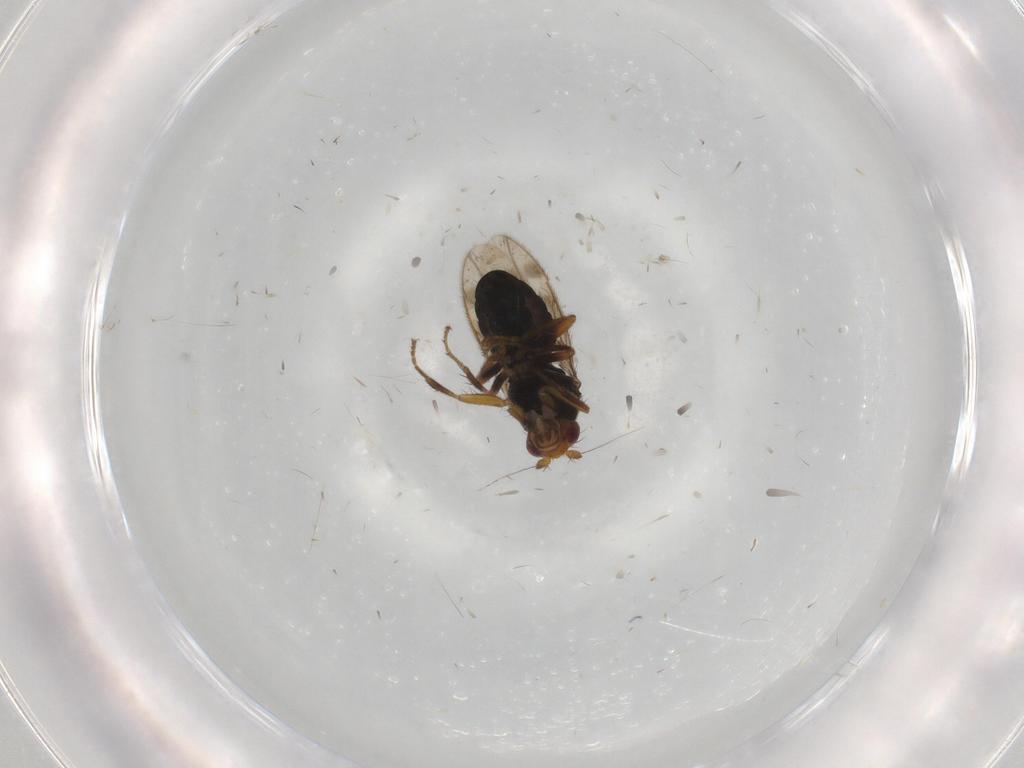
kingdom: Animalia
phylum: Arthropoda
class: Insecta
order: Diptera
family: Sphaeroceridae
